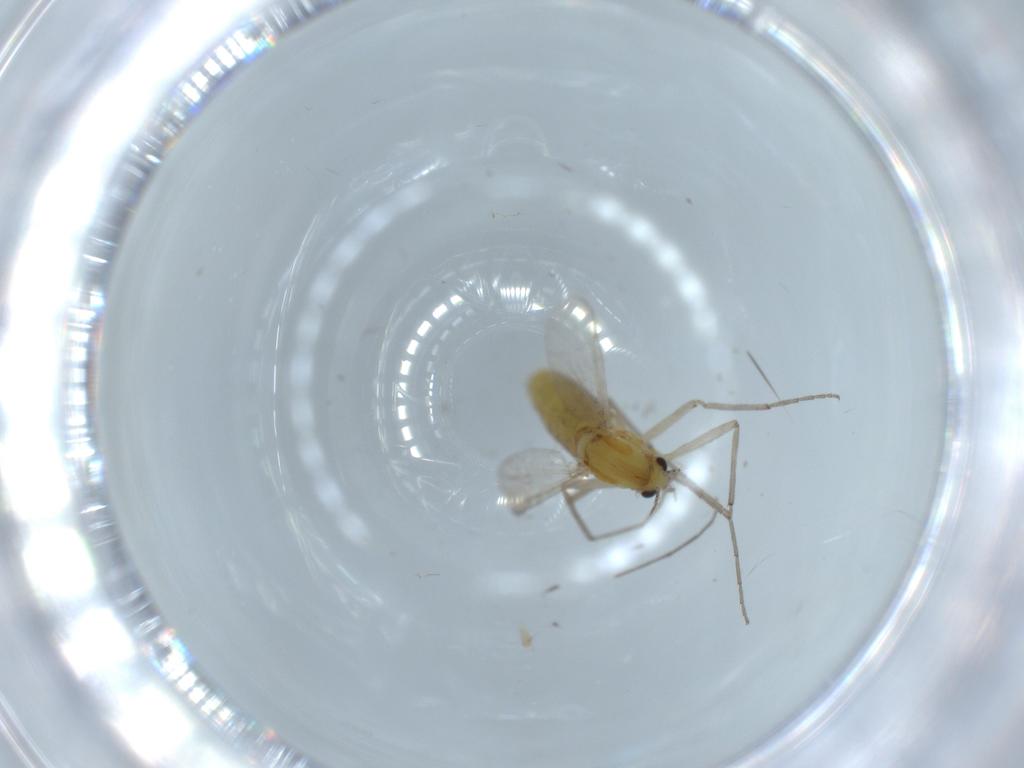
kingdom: Animalia
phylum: Arthropoda
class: Insecta
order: Diptera
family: Chironomidae
